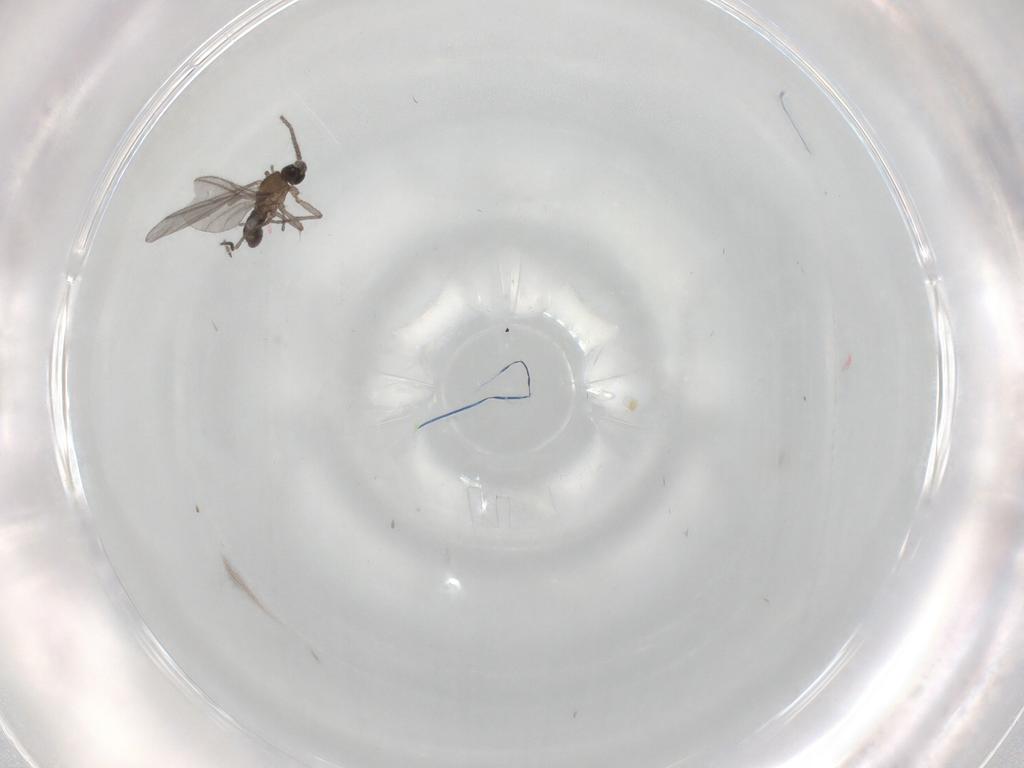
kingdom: Animalia
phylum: Arthropoda
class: Insecta
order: Diptera
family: Sciaridae
